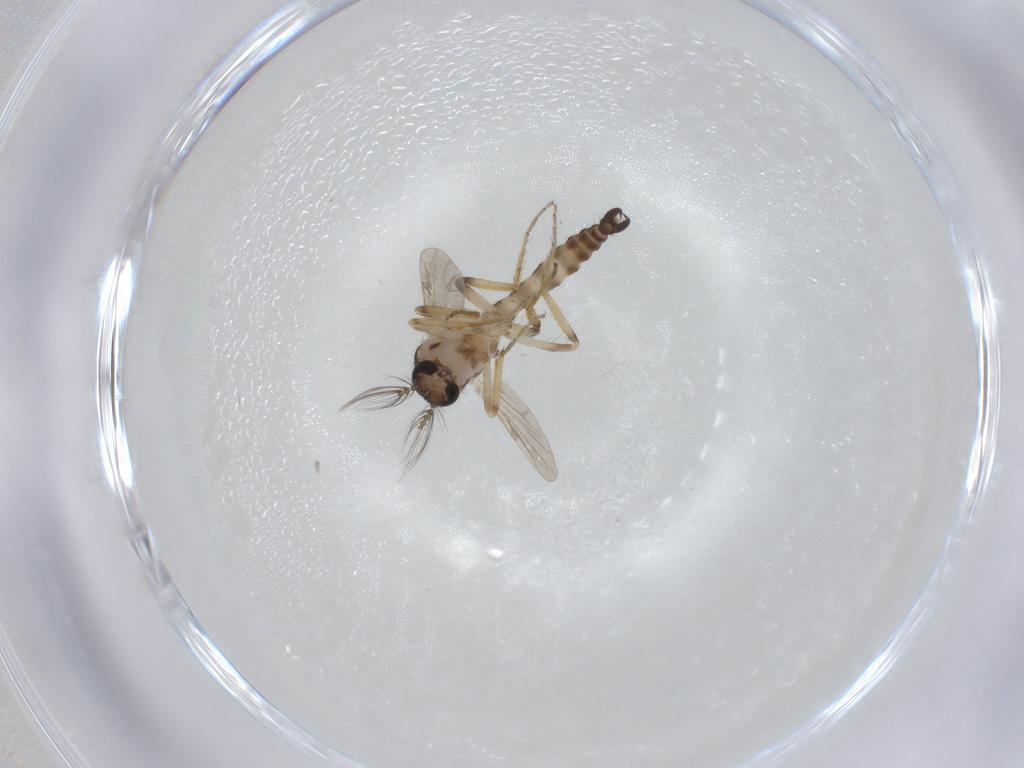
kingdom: Animalia
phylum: Arthropoda
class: Insecta
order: Diptera
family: Ceratopogonidae
